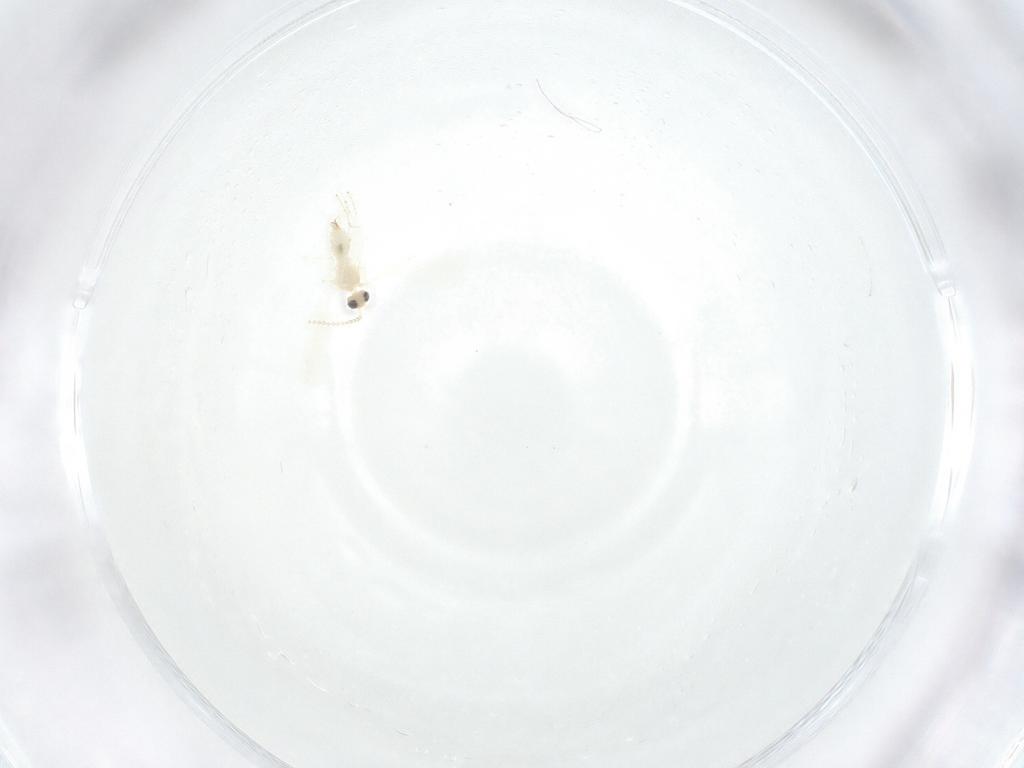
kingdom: Animalia
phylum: Arthropoda
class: Insecta
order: Diptera
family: Cecidomyiidae
